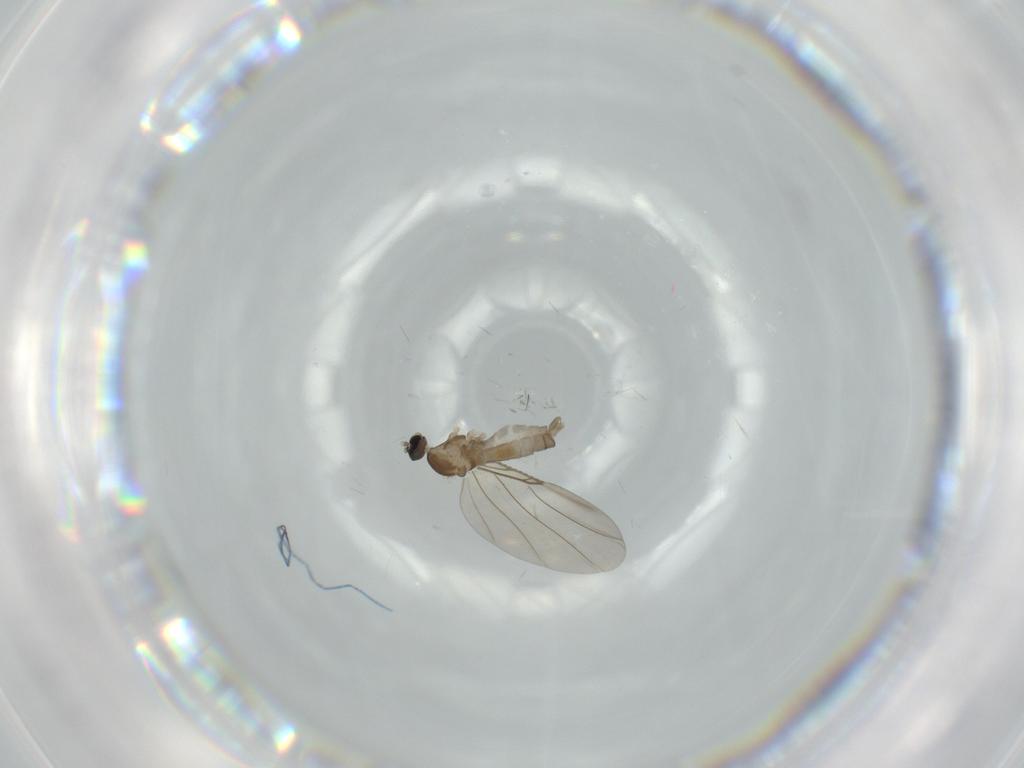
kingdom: Animalia
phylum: Arthropoda
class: Insecta
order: Diptera
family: Cecidomyiidae
